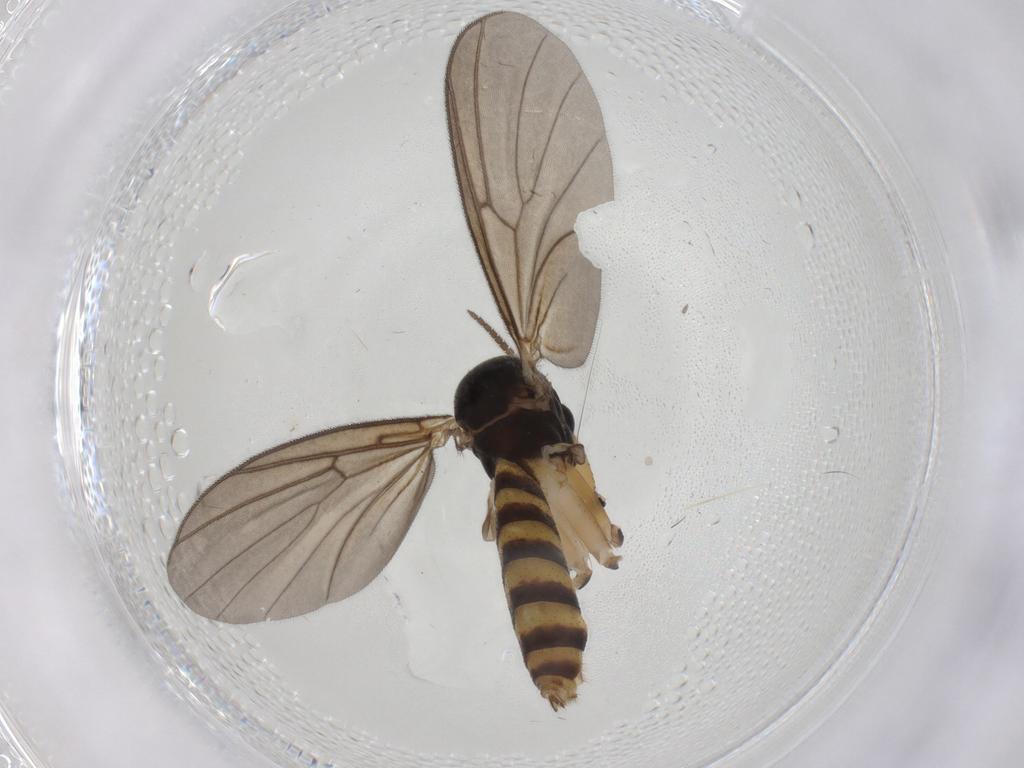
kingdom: Animalia
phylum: Arthropoda
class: Insecta
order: Diptera
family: Mycetophilidae
